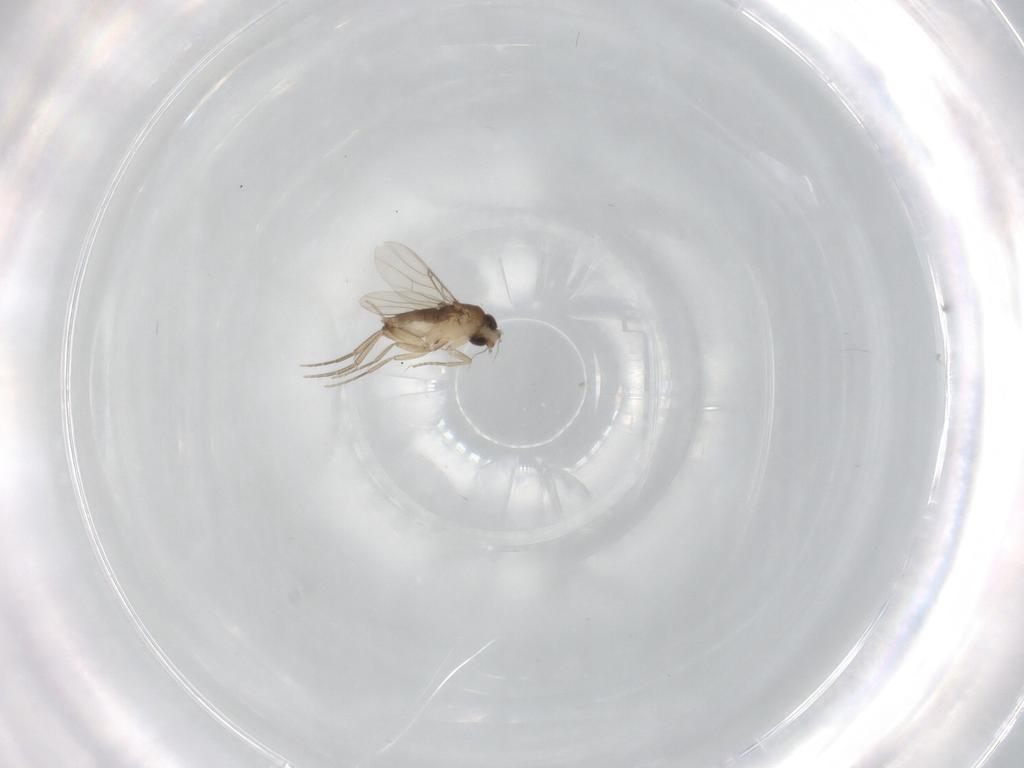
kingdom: Animalia
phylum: Arthropoda
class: Insecta
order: Diptera
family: Phoridae
